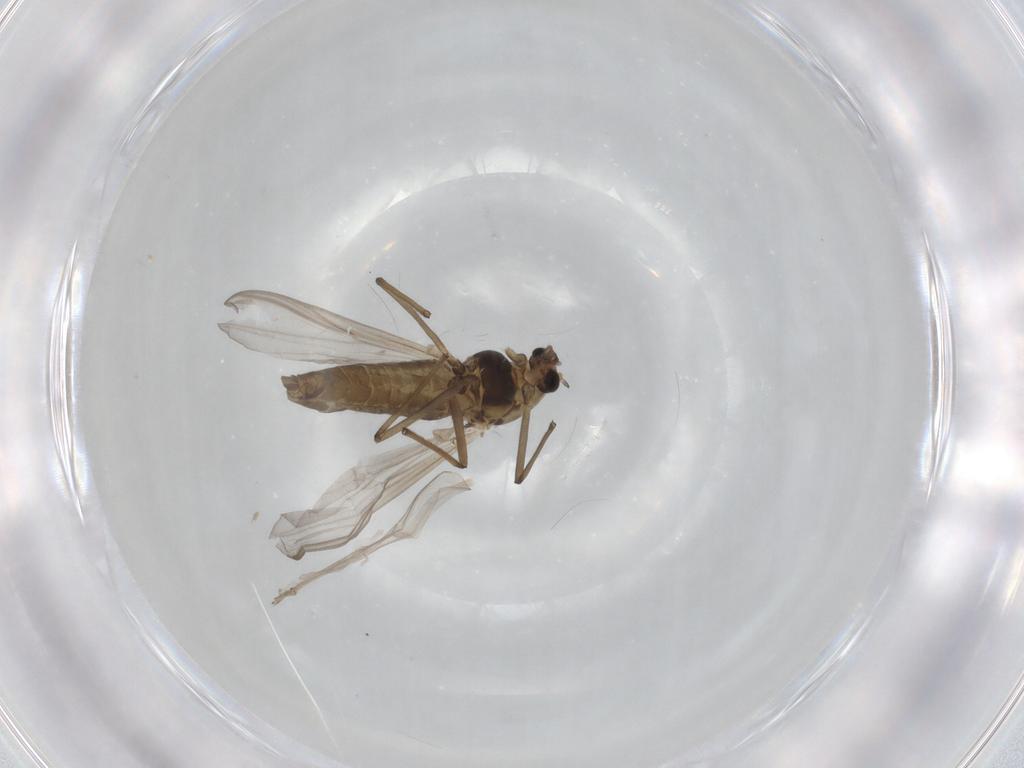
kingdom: Animalia
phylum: Arthropoda
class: Insecta
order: Diptera
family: Chironomidae
